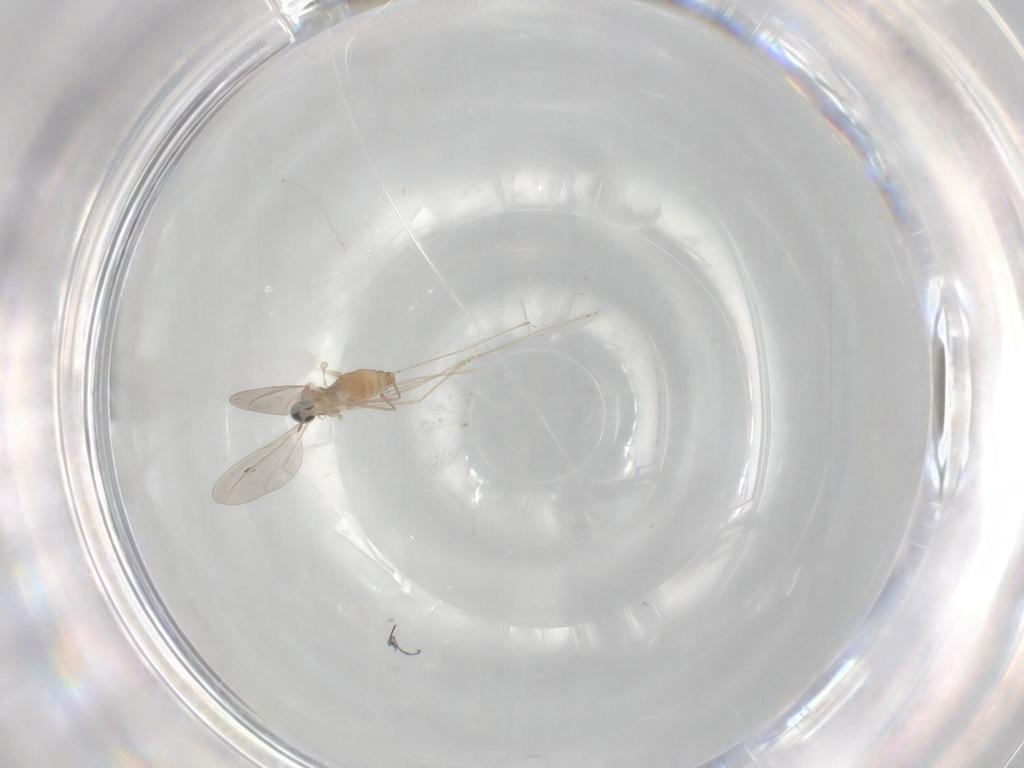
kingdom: Animalia
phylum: Arthropoda
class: Insecta
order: Diptera
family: Cecidomyiidae
